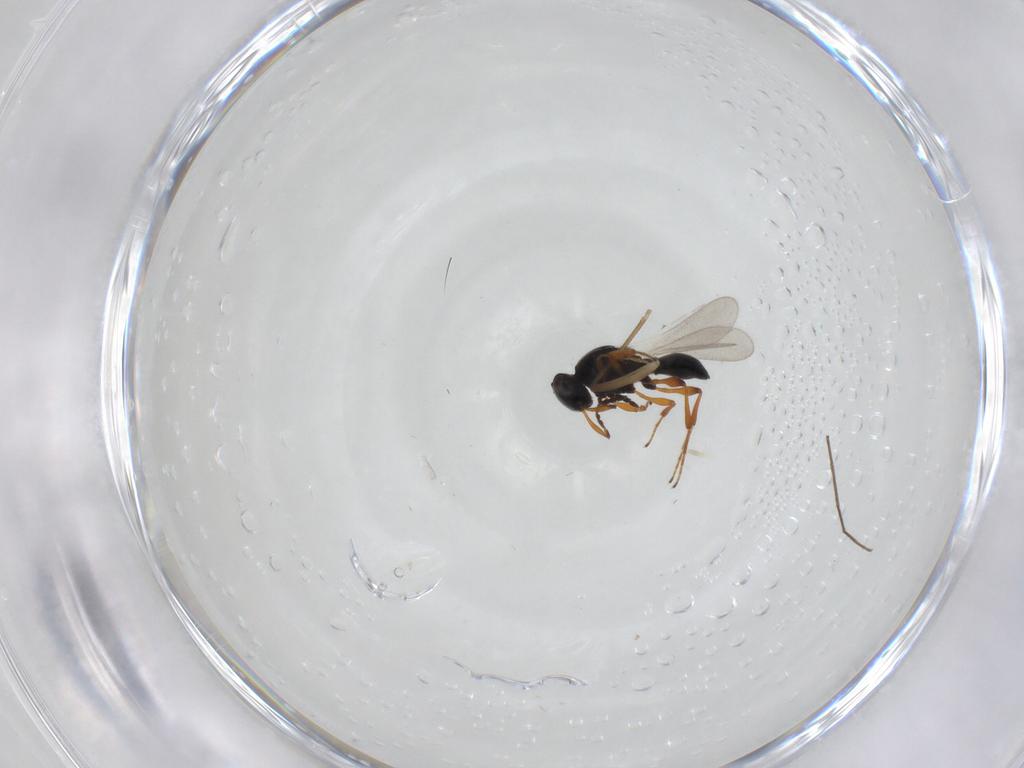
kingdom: Animalia
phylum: Arthropoda
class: Insecta
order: Hymenoptera
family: Platygastridae
